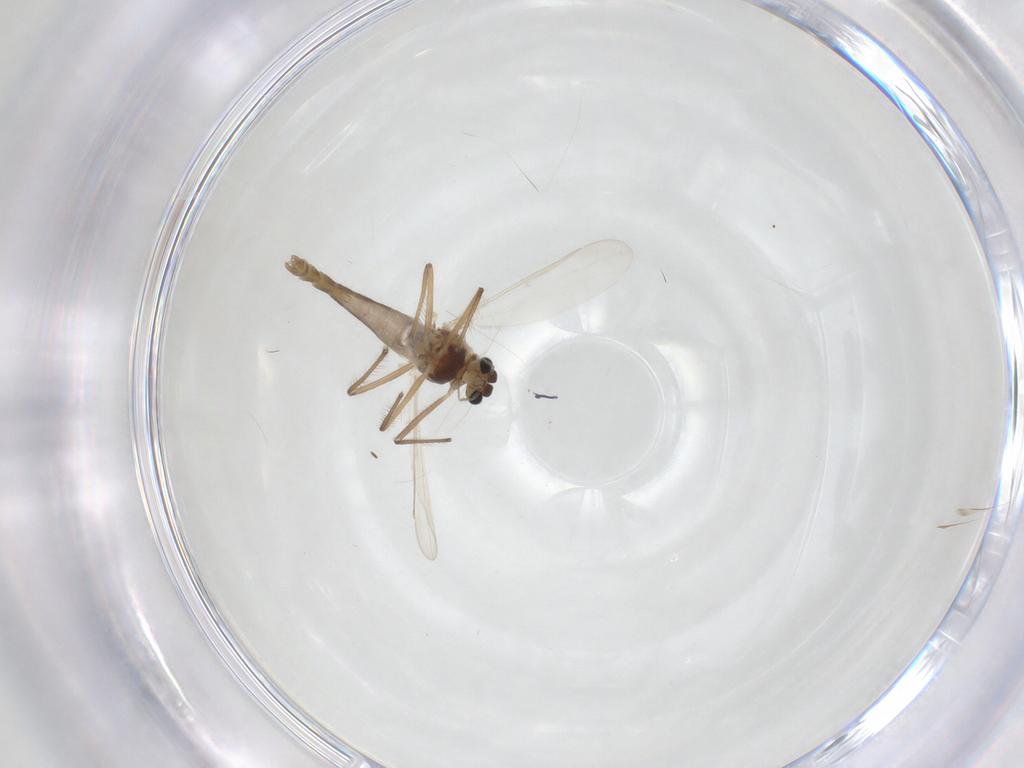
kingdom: Animalia
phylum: Arthropoda
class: Insecta
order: Diptera
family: Chironomidae
